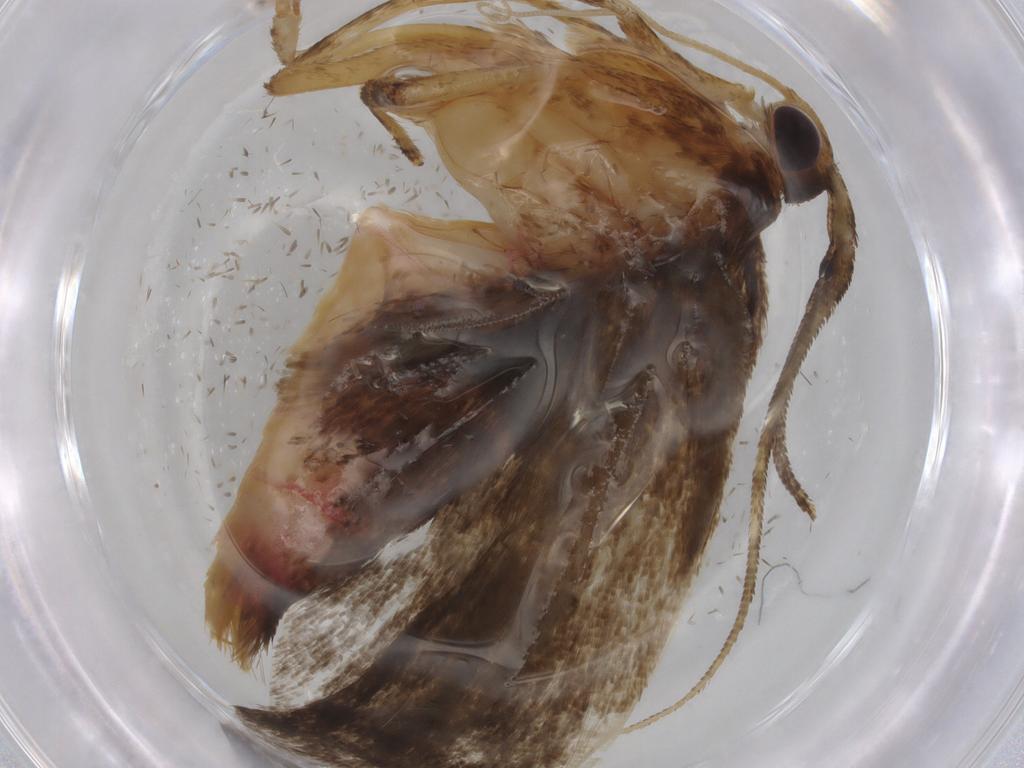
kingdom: Animalia
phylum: Arthropoda
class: Insecta
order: Lepidoptera
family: Autostichidae
